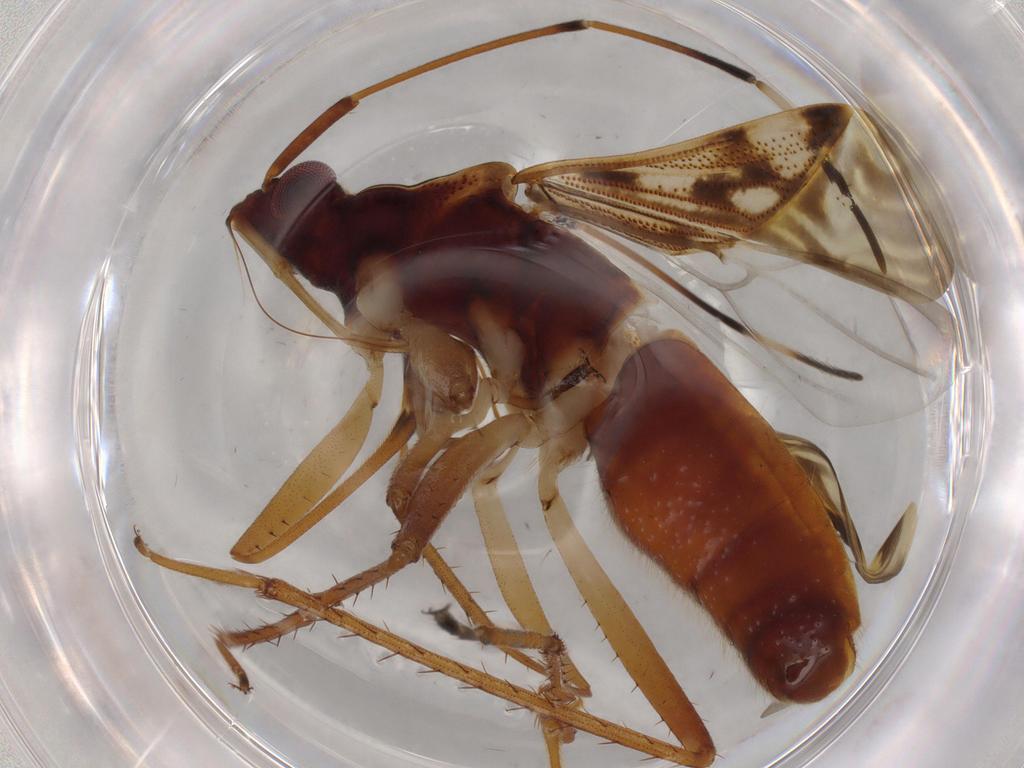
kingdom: Animalia
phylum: Arthropoda
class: Insecta
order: Hemiptera
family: Rhyparochromidae
